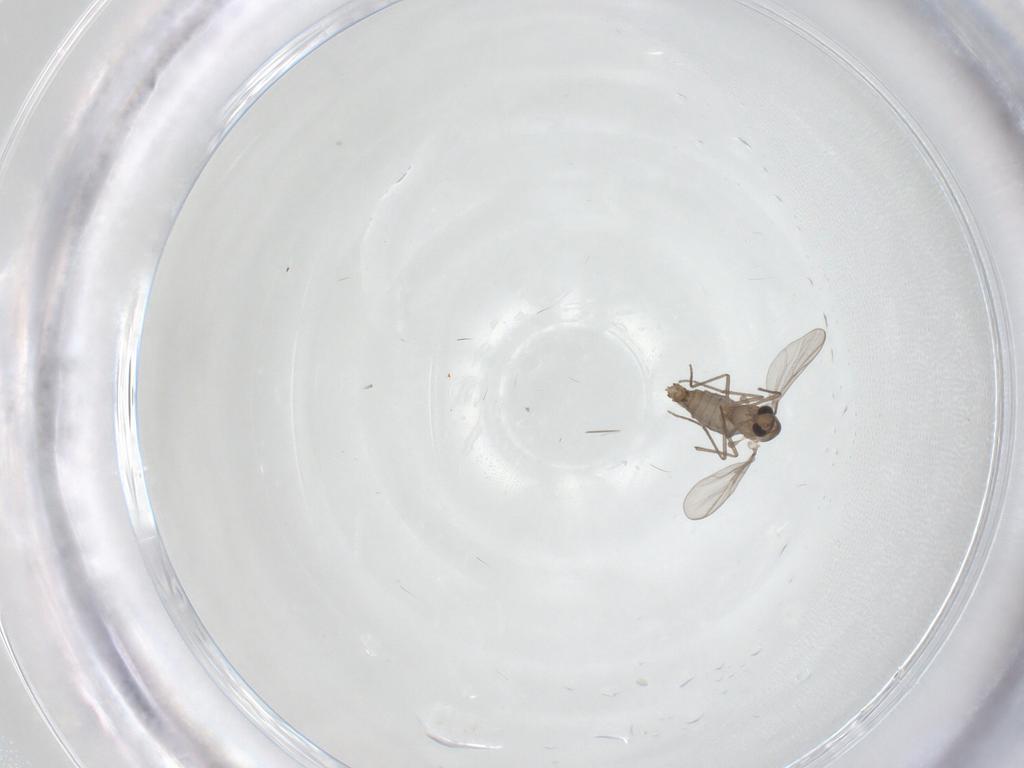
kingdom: Animalia
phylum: Arthropoda
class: Insecta
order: Diptera
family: Chironomidae
